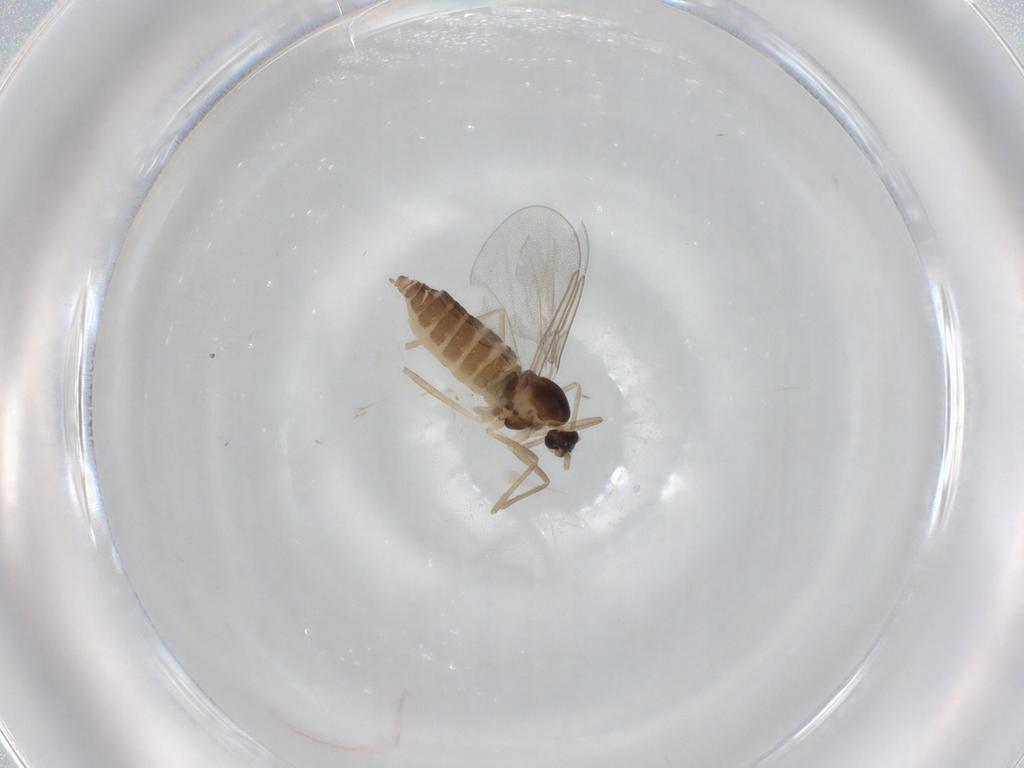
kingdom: Animalia
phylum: Arthropoda
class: Insecta
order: Diptera
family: Cecidomyiidae
